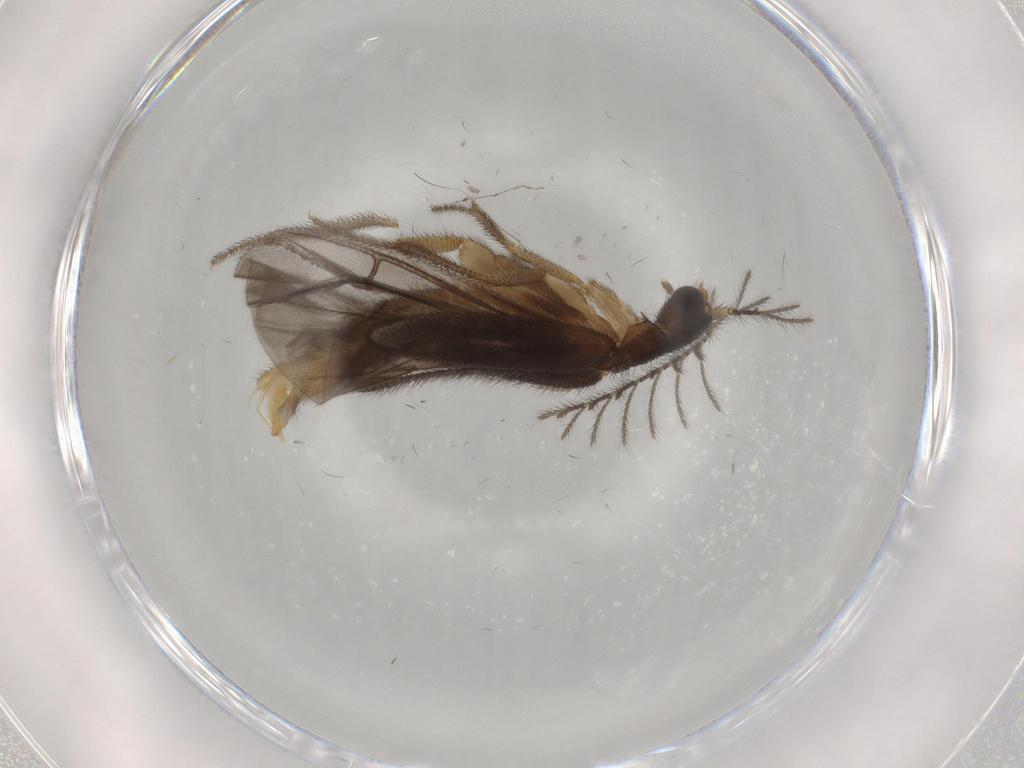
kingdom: Animalia
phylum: Arthropoda
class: Insecta
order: Coleoptera
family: Phengodidae
